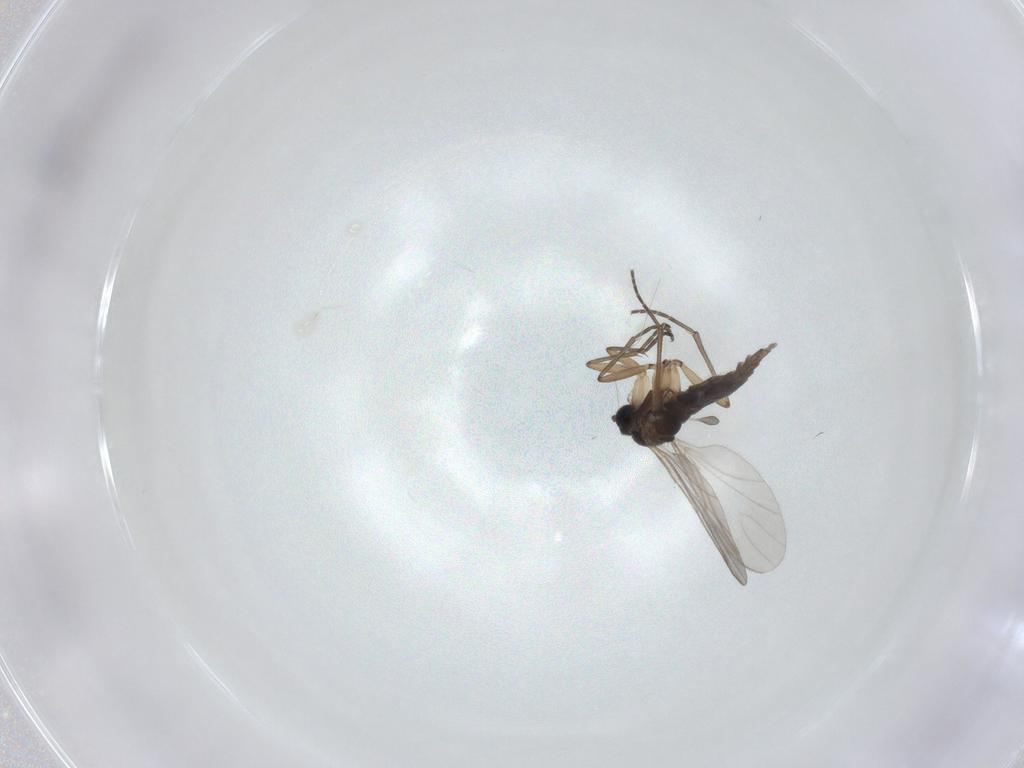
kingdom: Animalia
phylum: Arthropoda
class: Insecta
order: Diptera
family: Sciaridae
